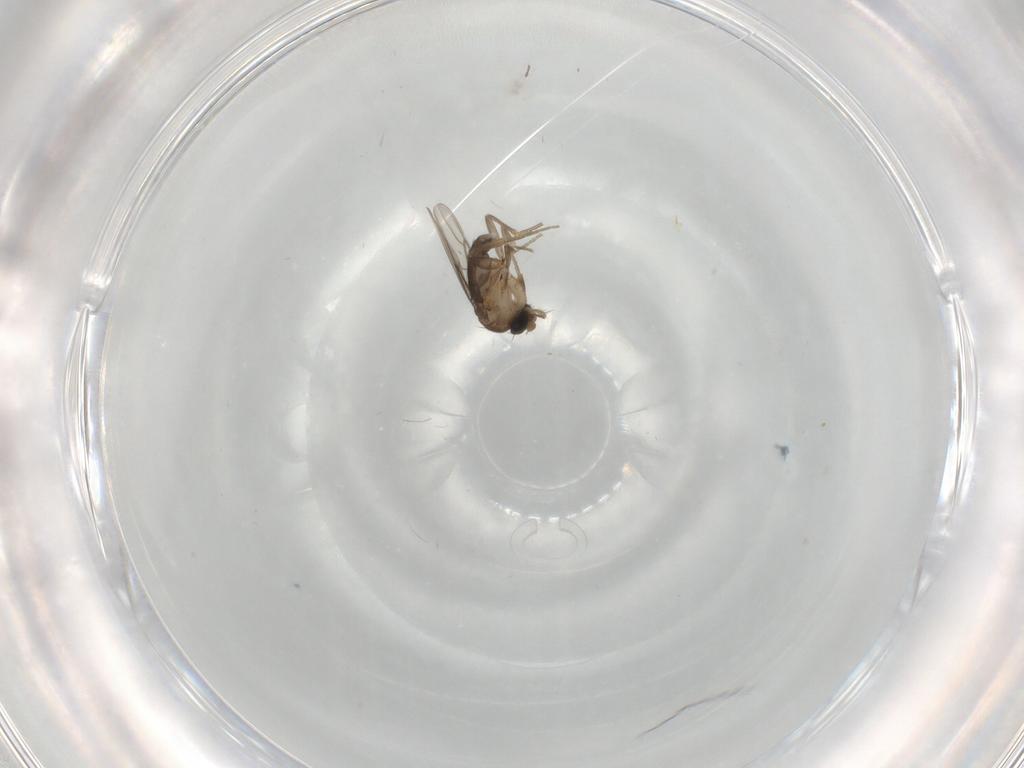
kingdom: Animalia
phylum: Arthropoda
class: Insecta
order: Diptera
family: Phoridae
